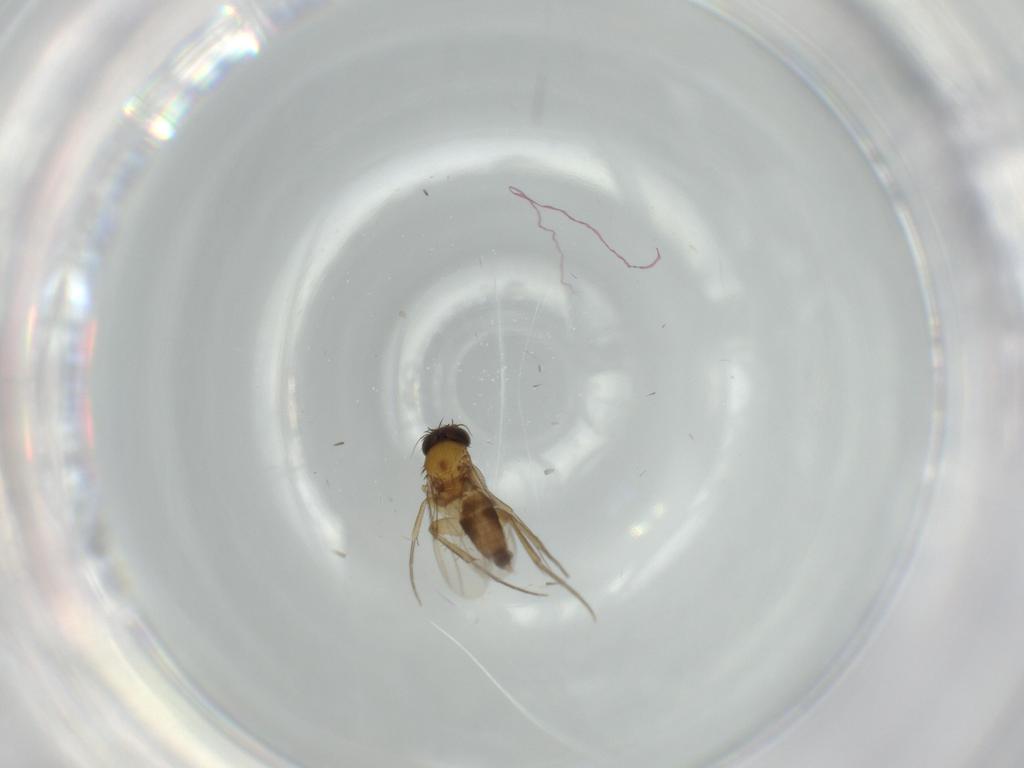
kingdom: Animalia
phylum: Arthropoda
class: Insecta
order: Diptera
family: Phoridae
